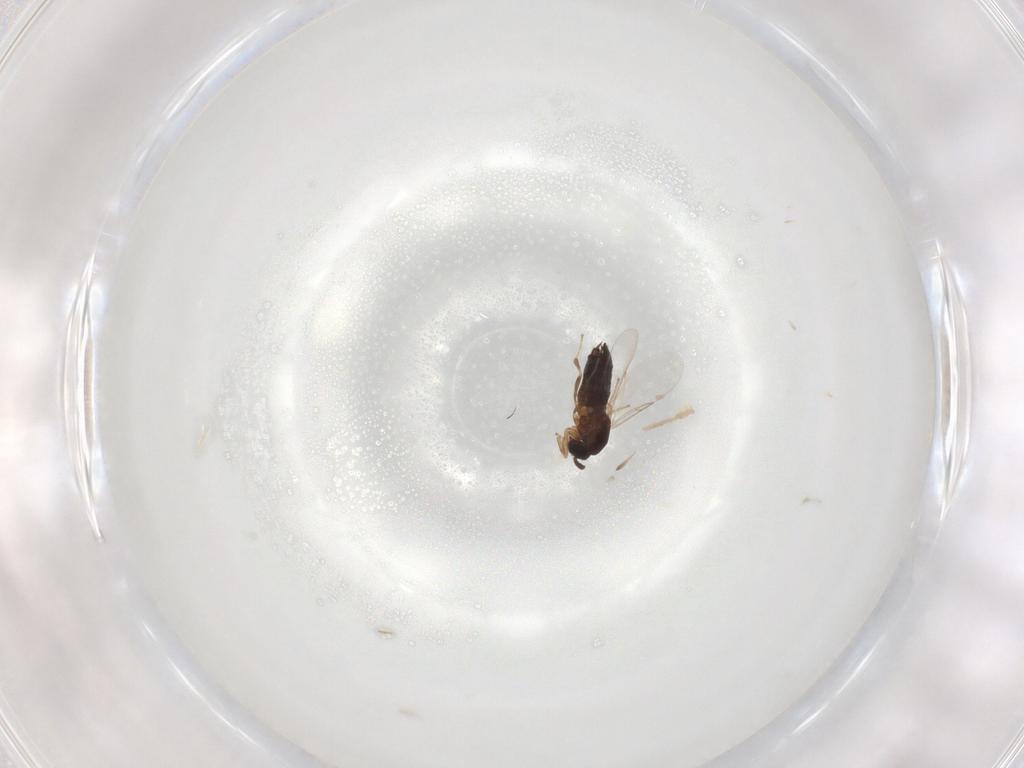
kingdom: Animalia
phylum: Arthropoda
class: Insecta
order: Diptera
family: Scatopsidae
